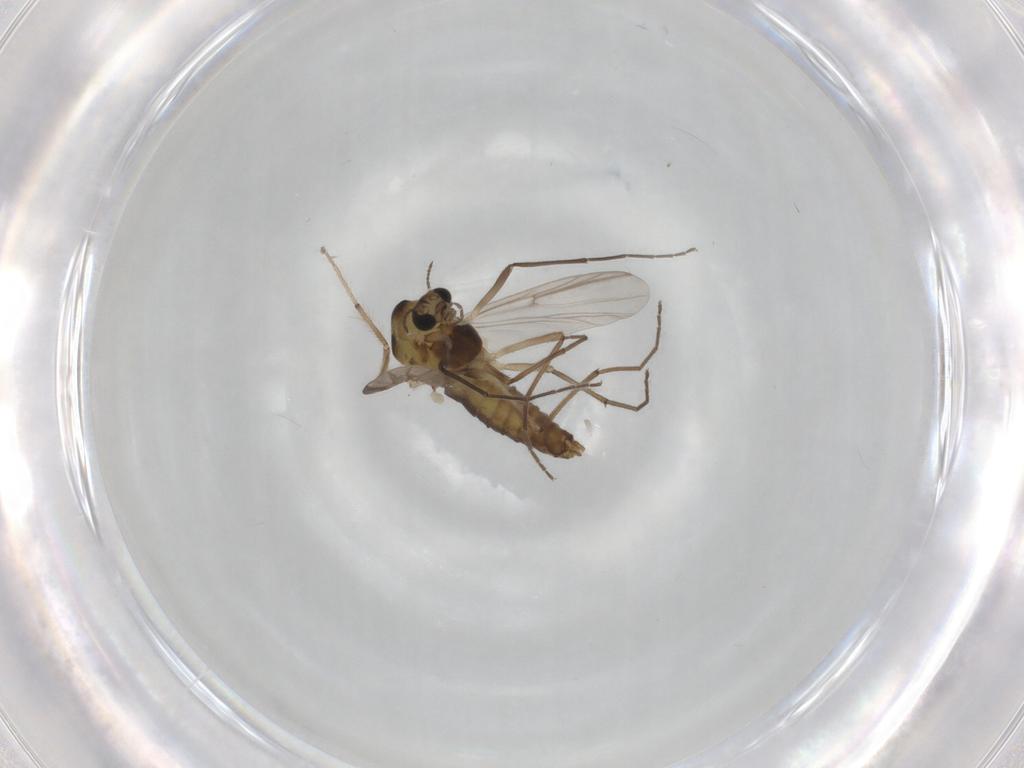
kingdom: Animalia
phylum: Arthropoda
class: Insecta
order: Diptera
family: Chironomidae
